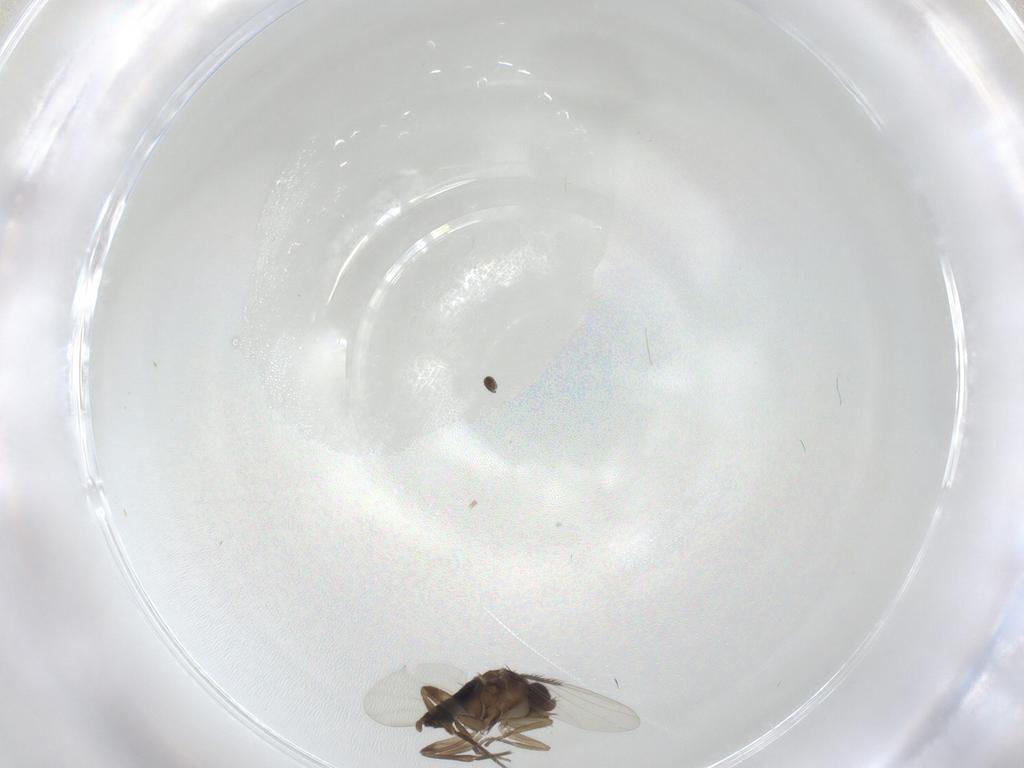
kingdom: Animalia
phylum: Arthropoda
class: Insecta
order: Diptera
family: Phoridae
